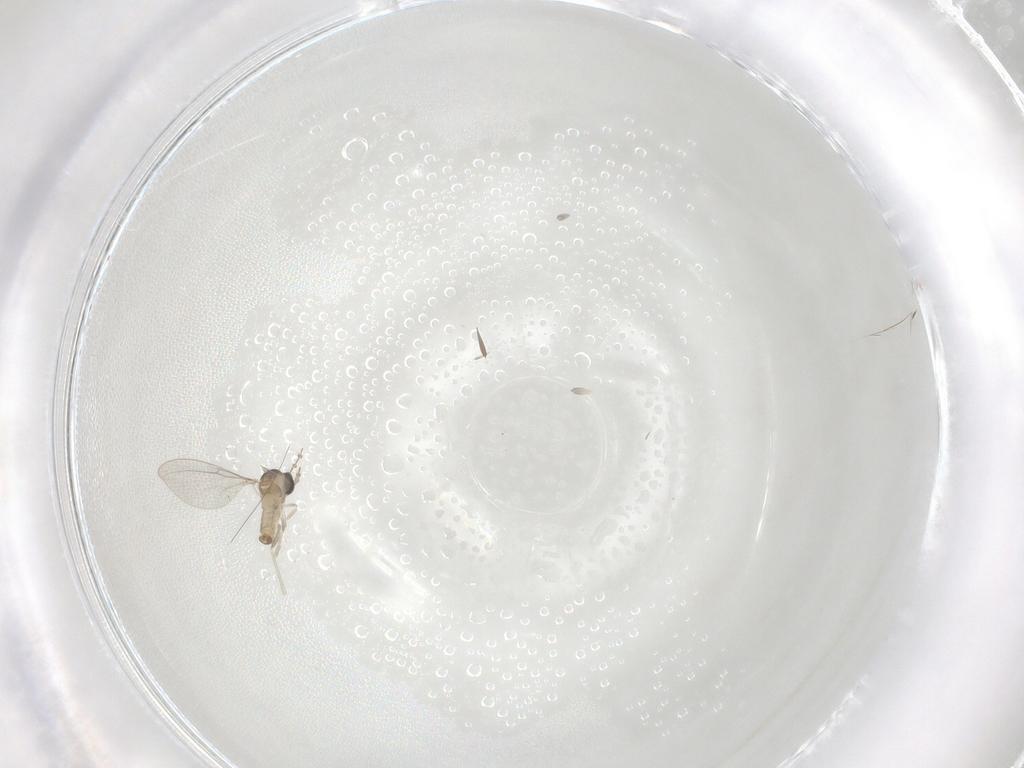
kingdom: Animalia
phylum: Arthropoda
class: Insecta
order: Diptera
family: Cecidomyiidae
